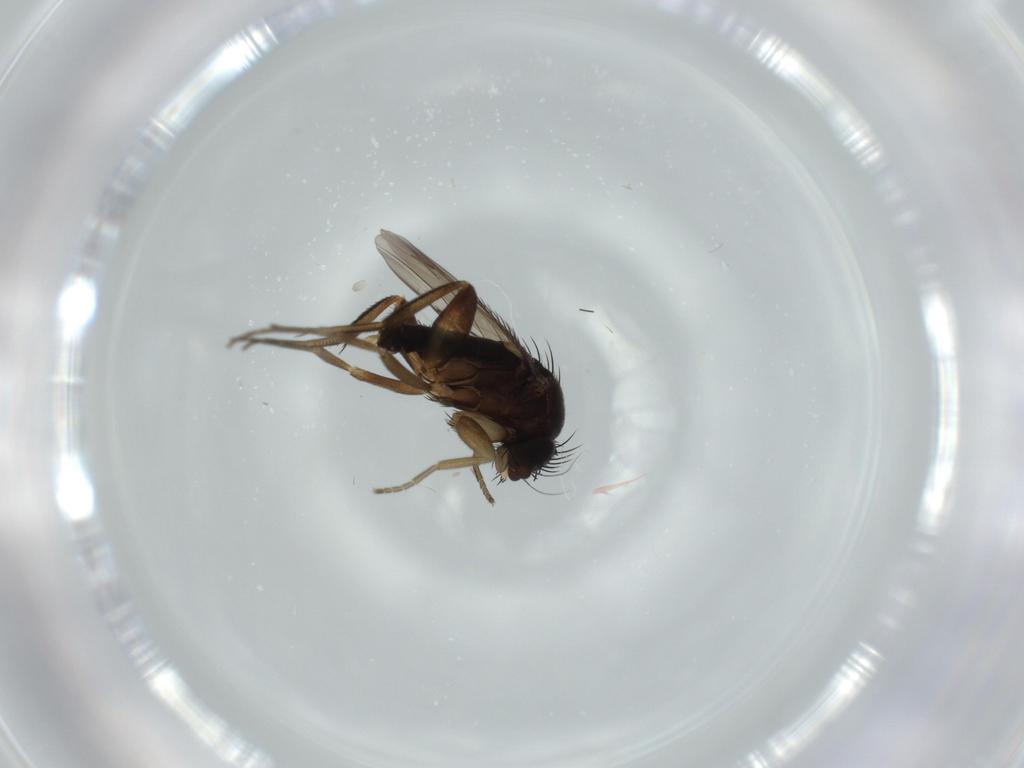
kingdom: Animalia
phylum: Arthropoda
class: Insecta
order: Diptera
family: Phoridae
